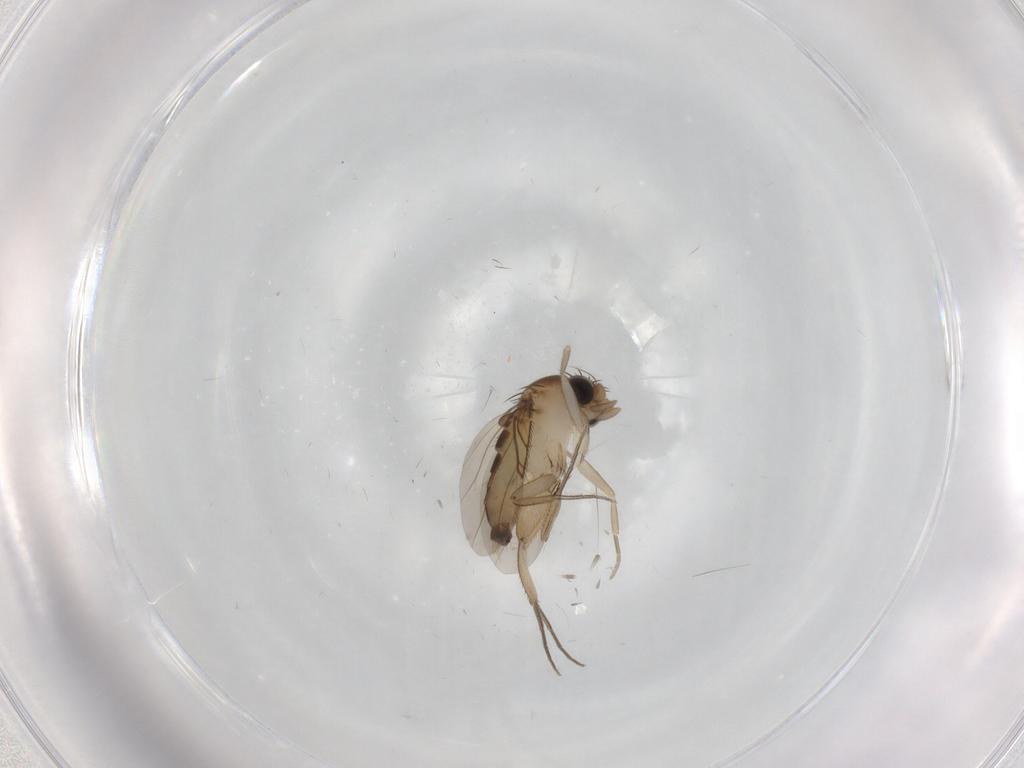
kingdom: Animalia
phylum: Arthropoda
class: Insecta
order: Diptera
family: Phoridae
